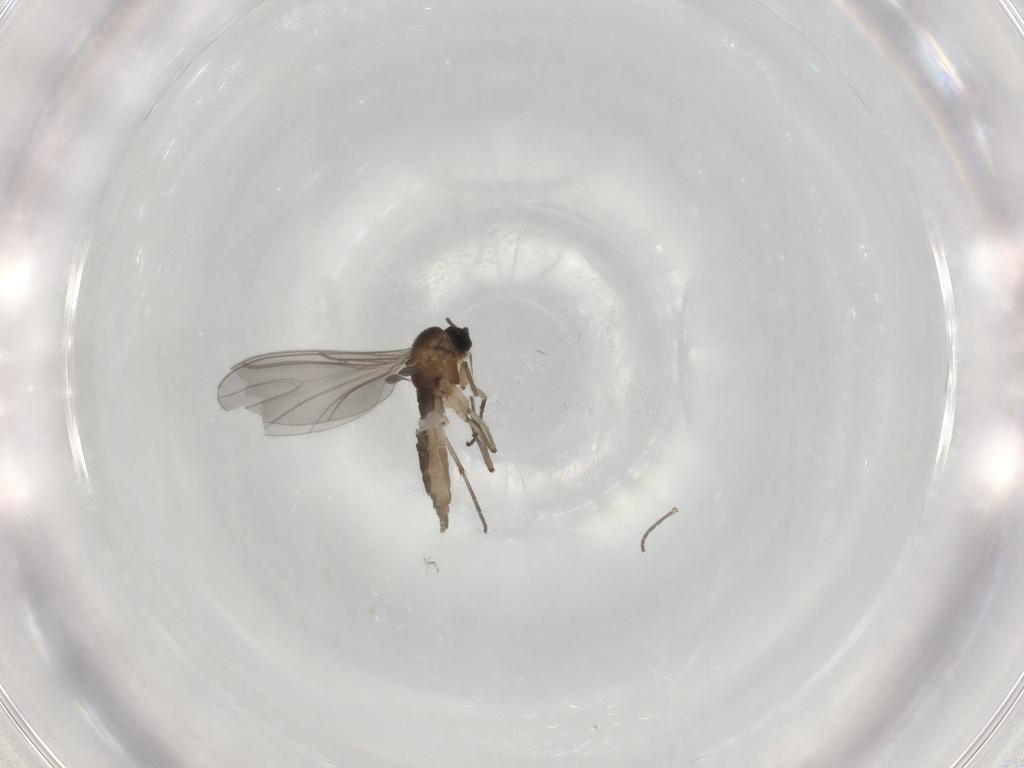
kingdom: Animalia
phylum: Arthropoda
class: Insecta
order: Diptera
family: Sciaridae
